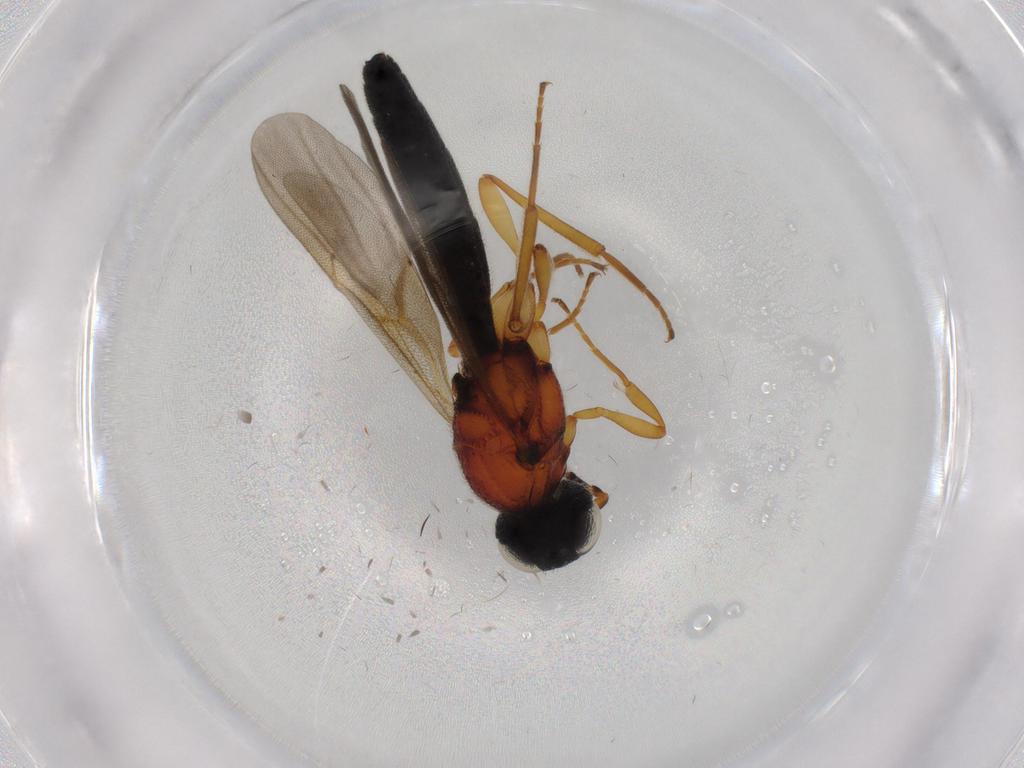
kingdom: Animalia
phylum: Arthropoda
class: Insecta
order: Hymenoptera
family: Scelionidae
